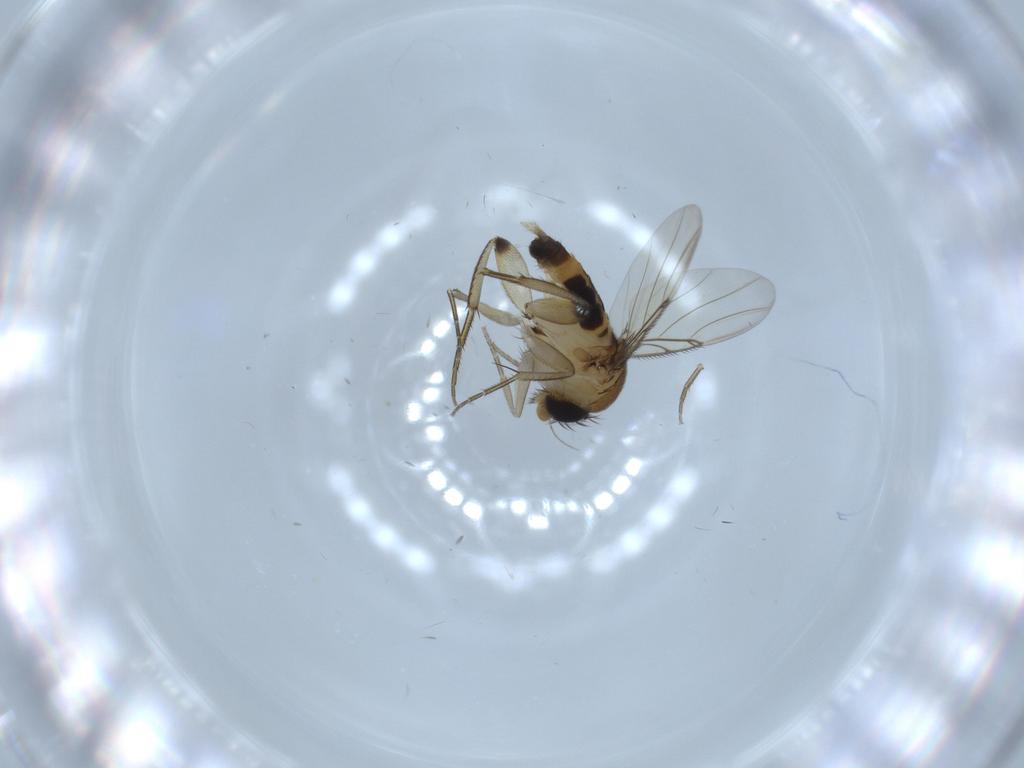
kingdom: Animalia
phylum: Arthropoda
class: Insecta
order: Diptera
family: Phoridae
